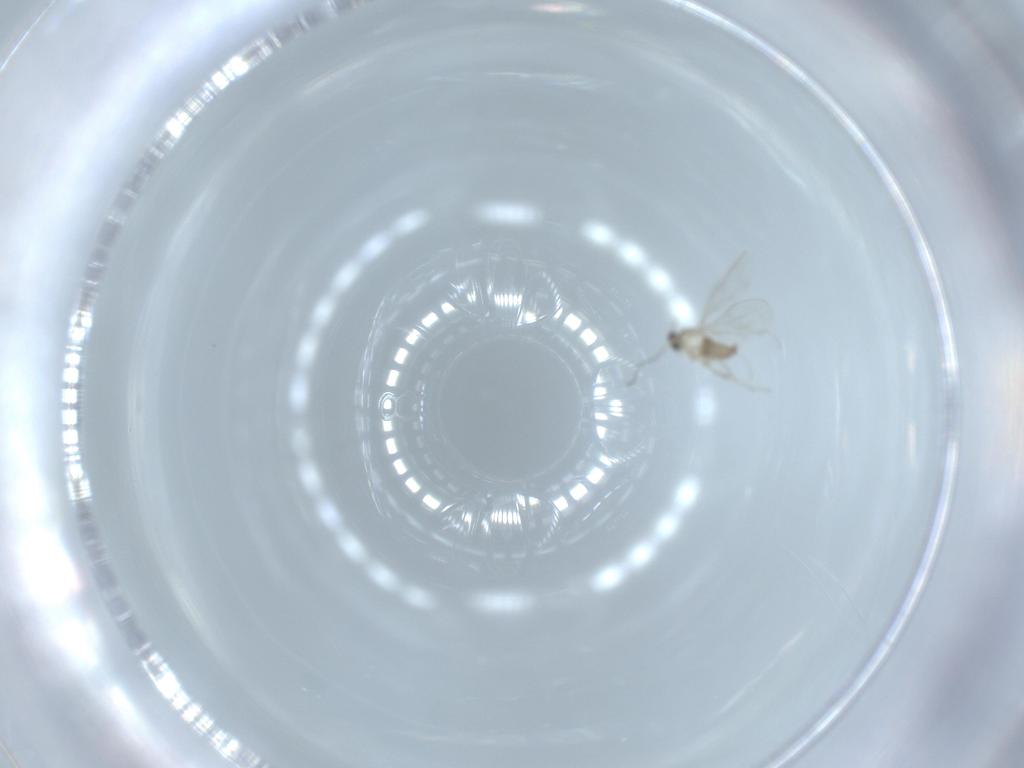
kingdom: Animalia
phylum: Arthropoda
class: Insecta
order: Diptera
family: Cecidomyiidae
